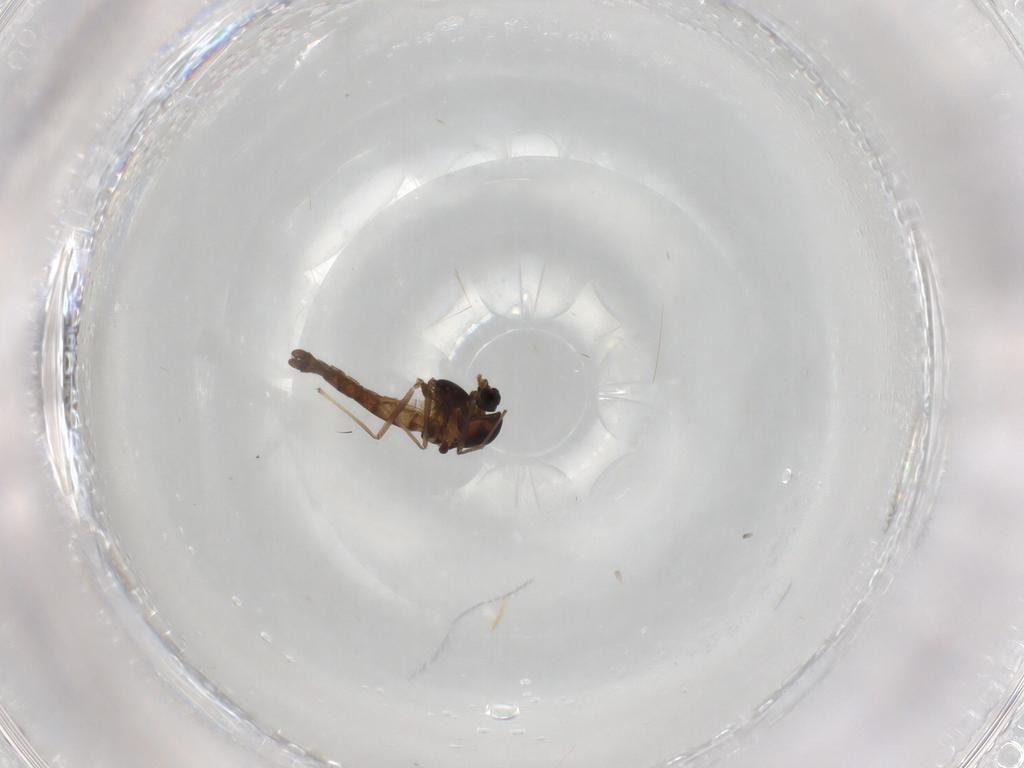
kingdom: Animalia
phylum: Arthropoda
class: Insecta
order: Diptera
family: Chironomidae
